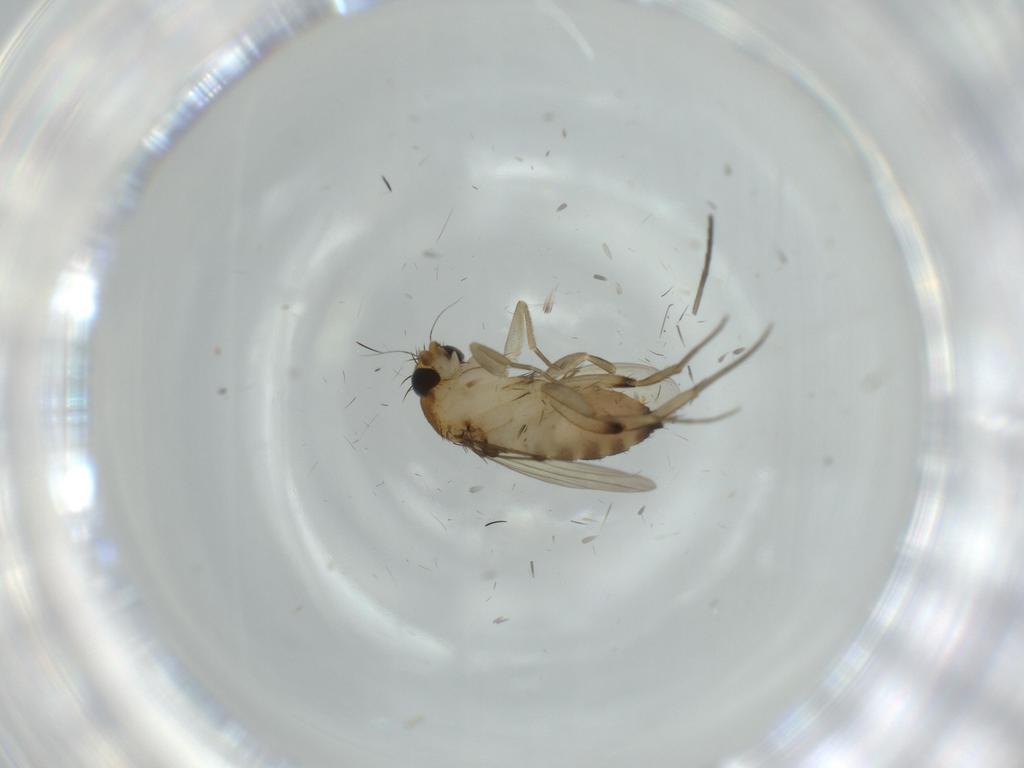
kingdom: Animalia
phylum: Arthropoda
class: Insecta
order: Diptera
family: Phoridae
